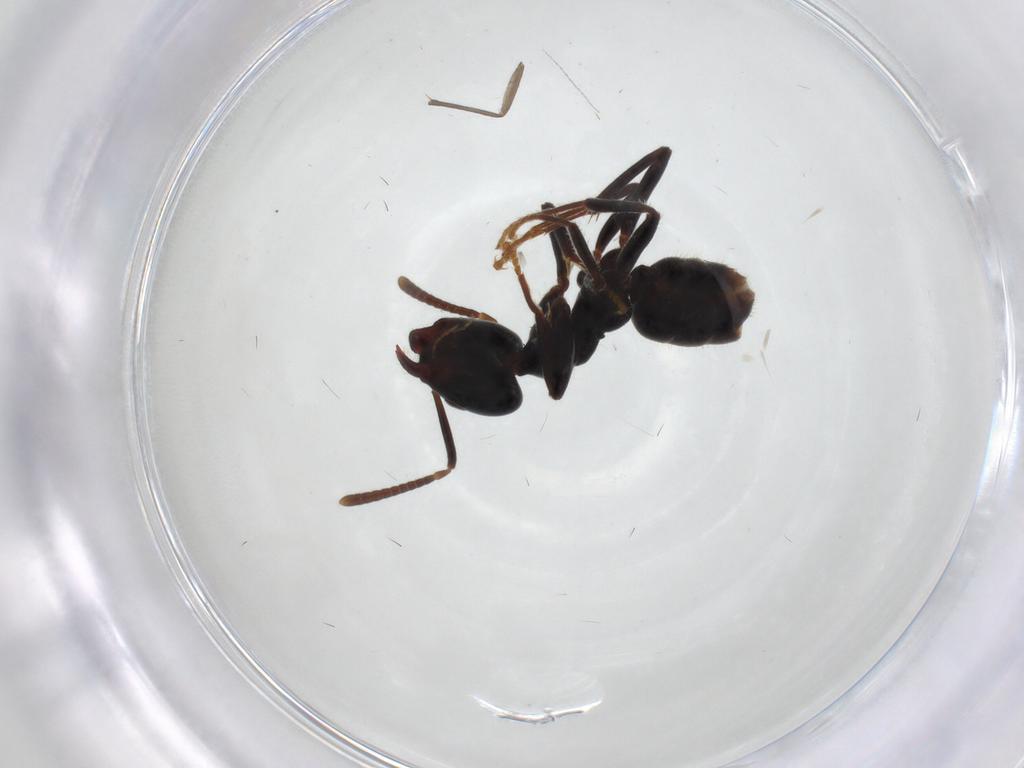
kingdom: Animalia
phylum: Arthropoda
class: Insecta
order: Hymenoptera
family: Formicidae
